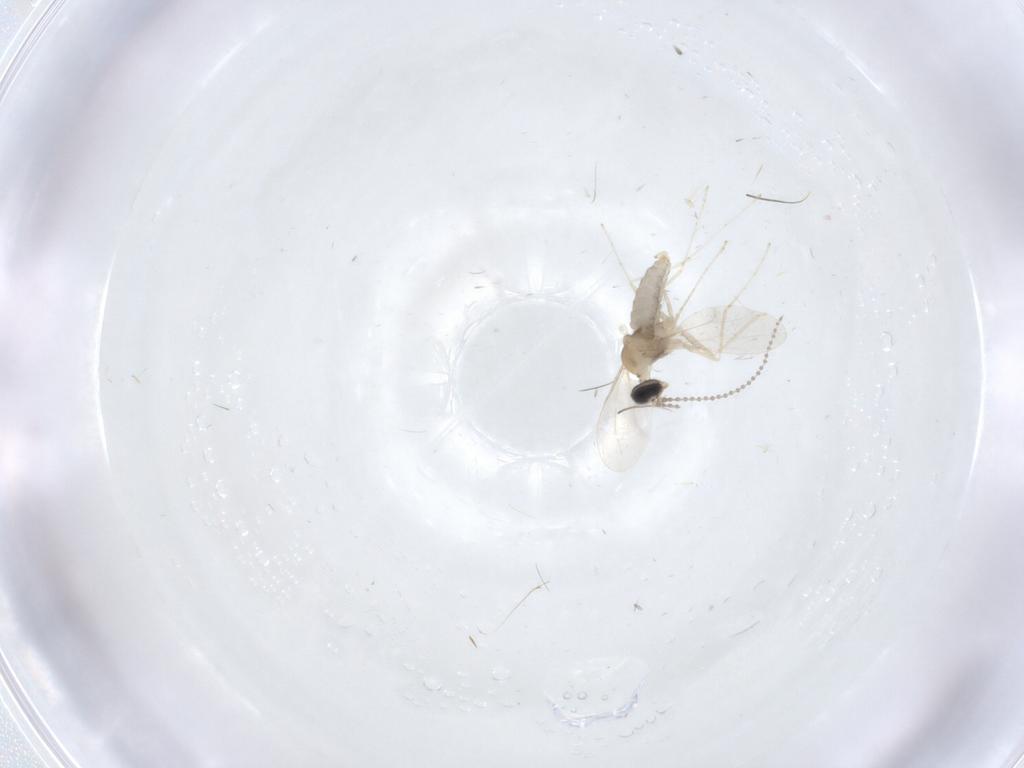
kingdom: Animalia
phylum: Arthropoda
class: Insecta
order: Diptera
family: Cecidomyiidae
